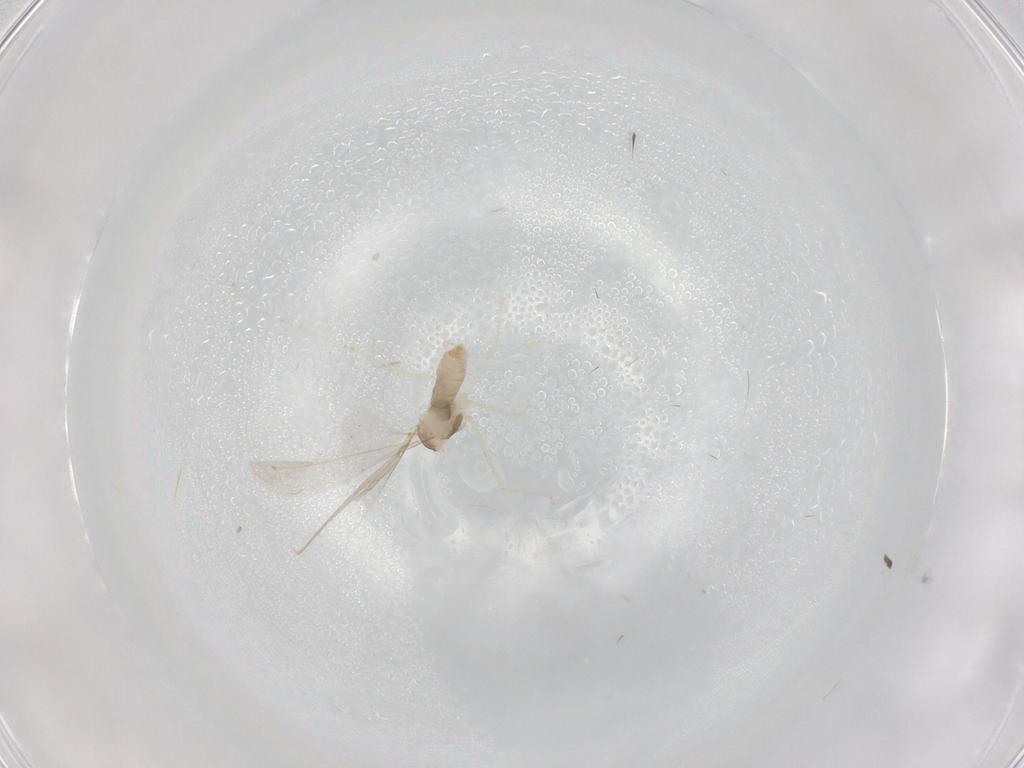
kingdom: Animalia
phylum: Arthropoda
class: Insecta
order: Diptera
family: Cecidomyiidae
